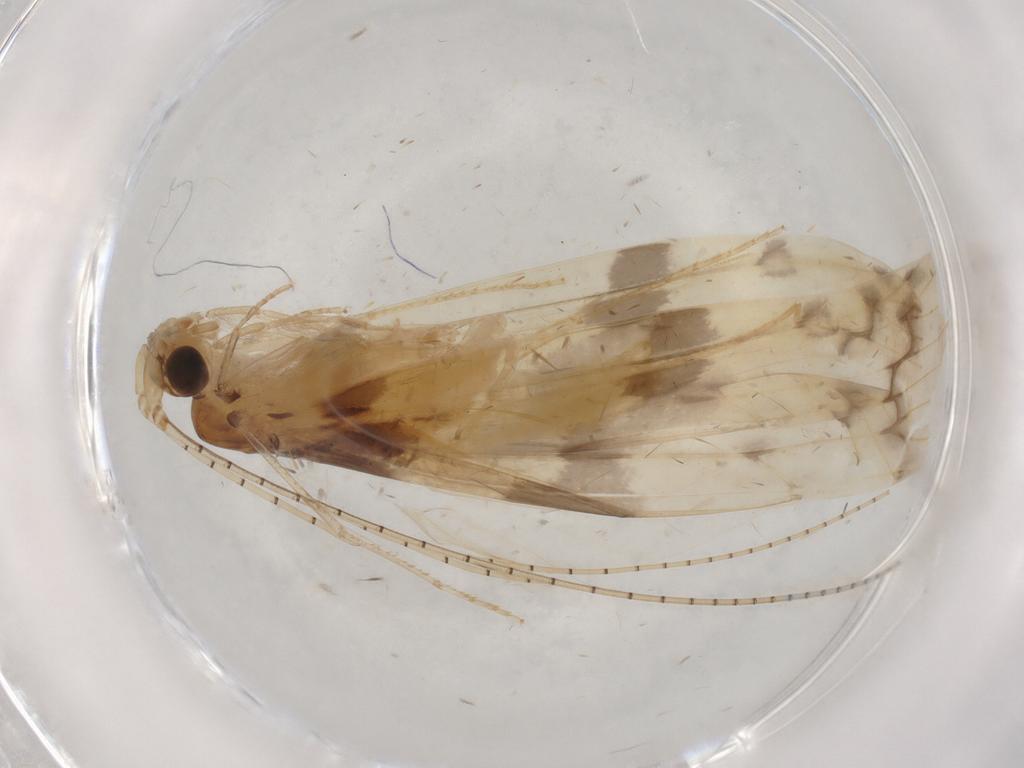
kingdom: Animalia
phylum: Arthropoda
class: Insecta
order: Trichoptera
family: Leptoceridae
